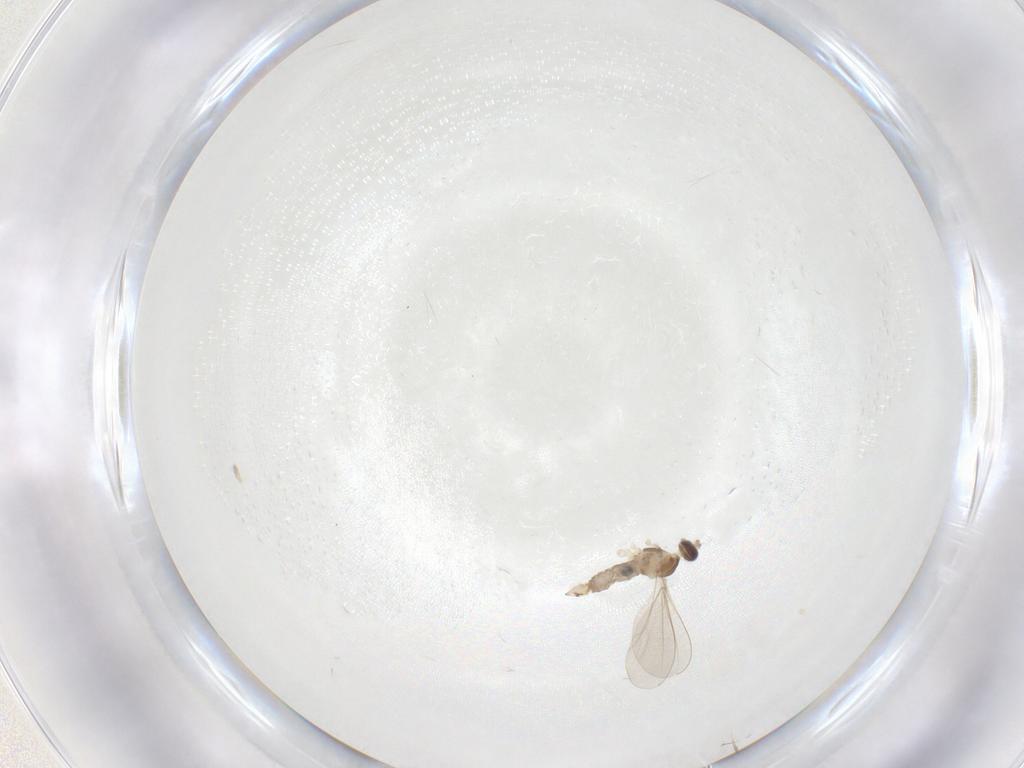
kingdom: Animalia
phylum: Arthropoda
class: Insecta
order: Diptera
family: Cecidomyiidae
